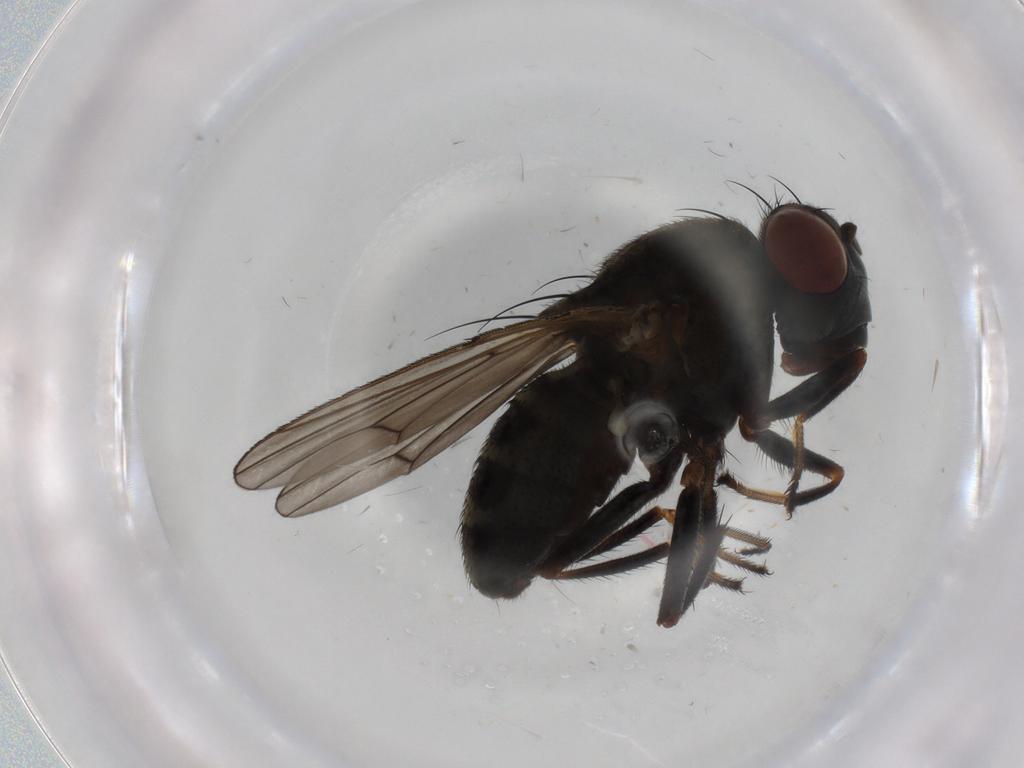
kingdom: Animalia
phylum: Arthropoda
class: Insecta
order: Diptera
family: Ephydridae
